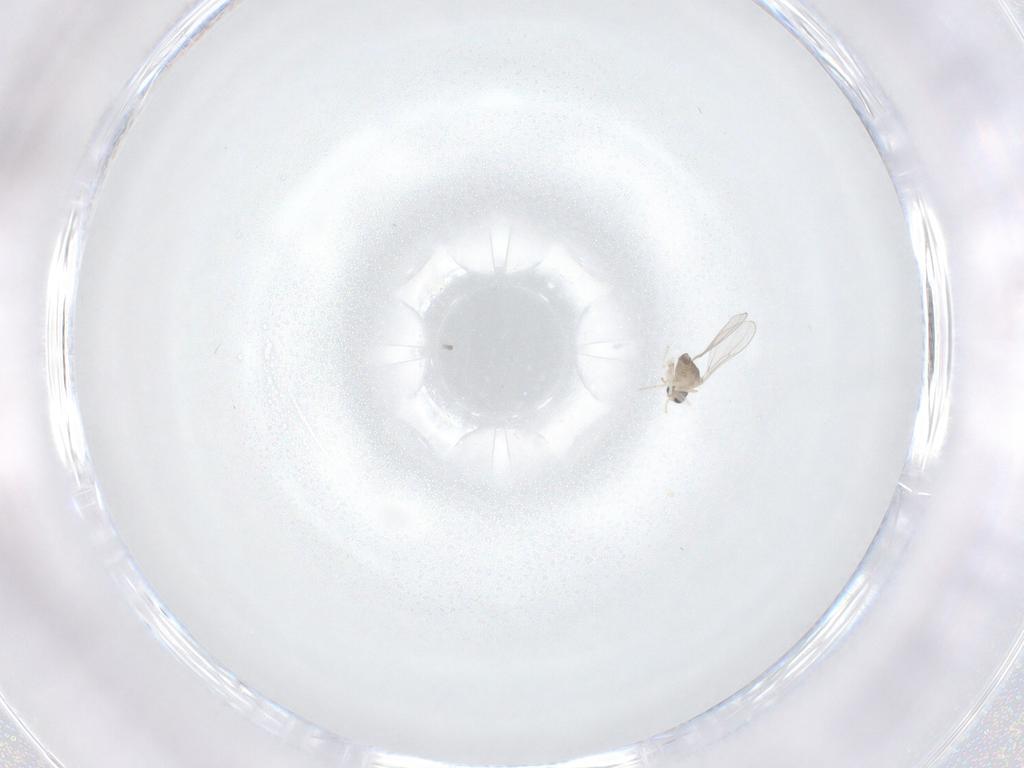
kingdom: Animalia
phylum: Arthropoda
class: Insecta
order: Diptera
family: Cecidomyiidae
